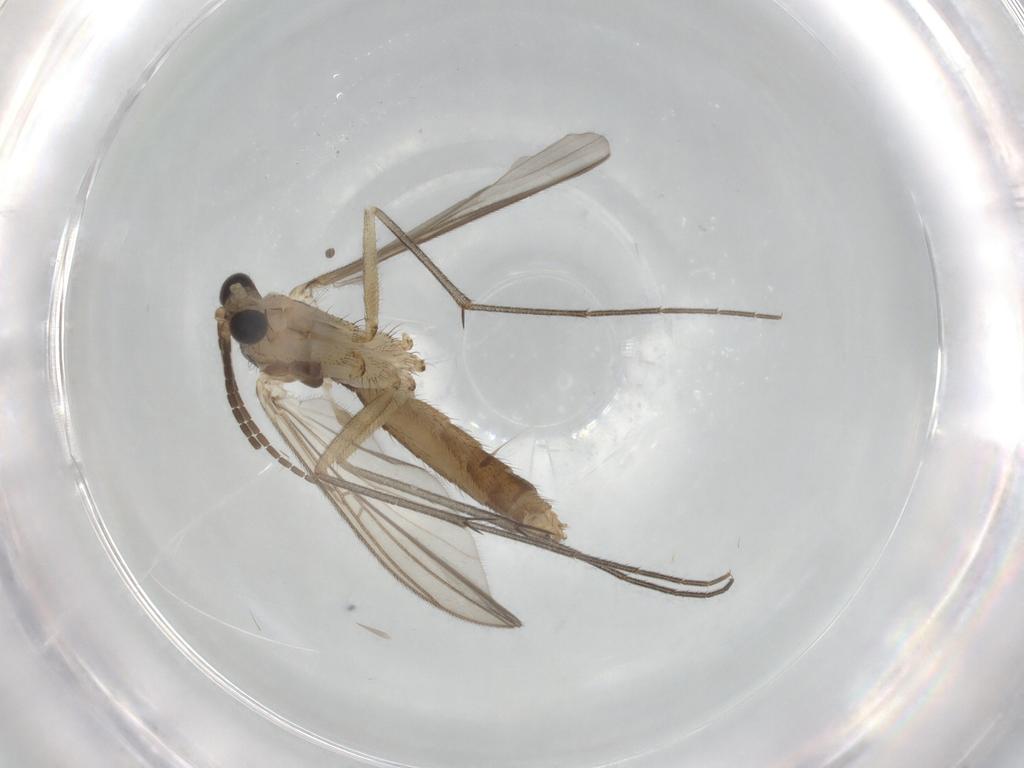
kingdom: Animalia
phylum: Arthropoda
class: Insecta
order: Diptera
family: Mycetophilidae
